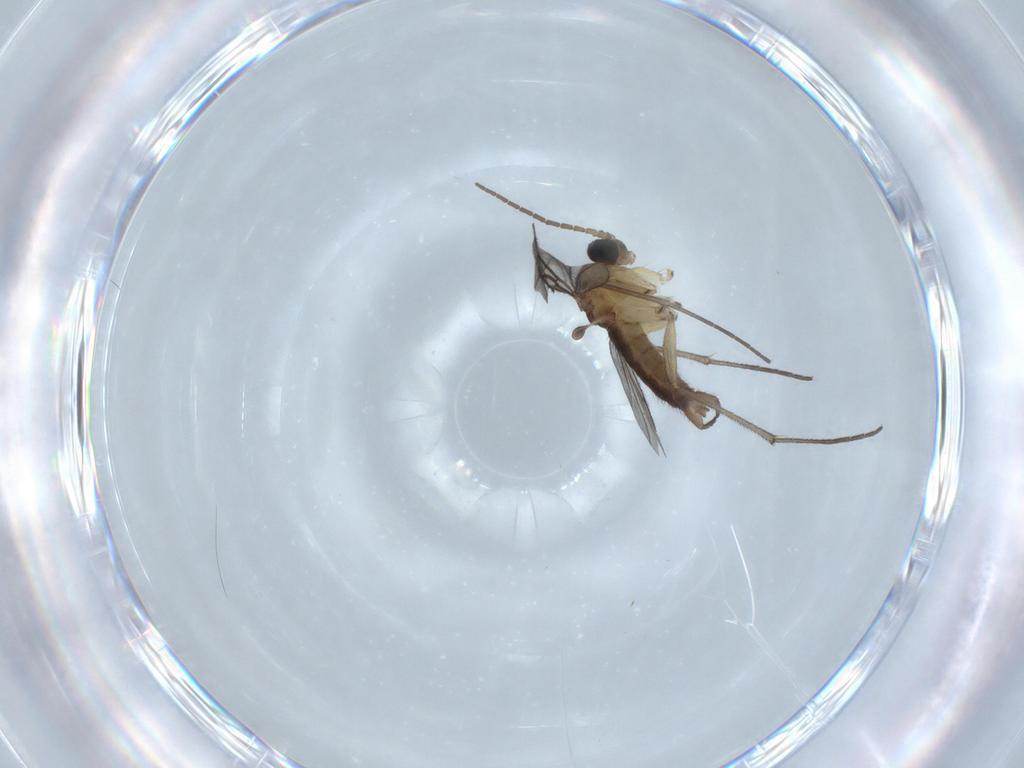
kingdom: Animalia
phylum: Arthropoda
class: Insecta
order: Diptera
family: Sciaridae
